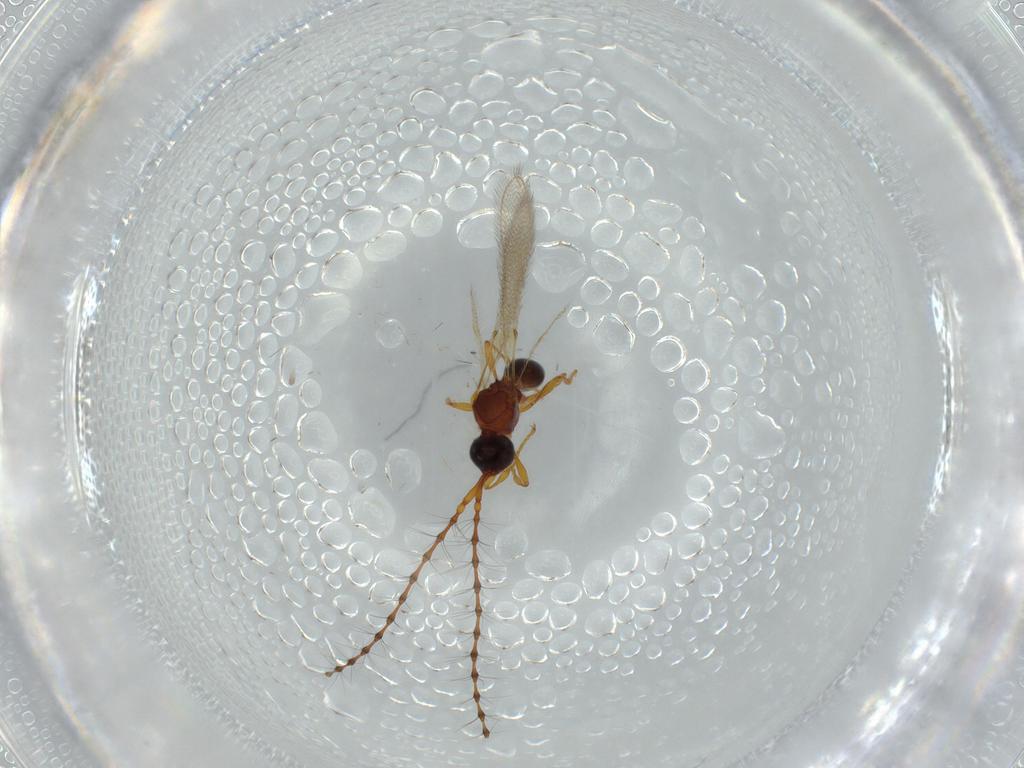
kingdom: Animalia
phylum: Arthropoda
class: Insecta
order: Hymenoptera
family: Diapriidae
